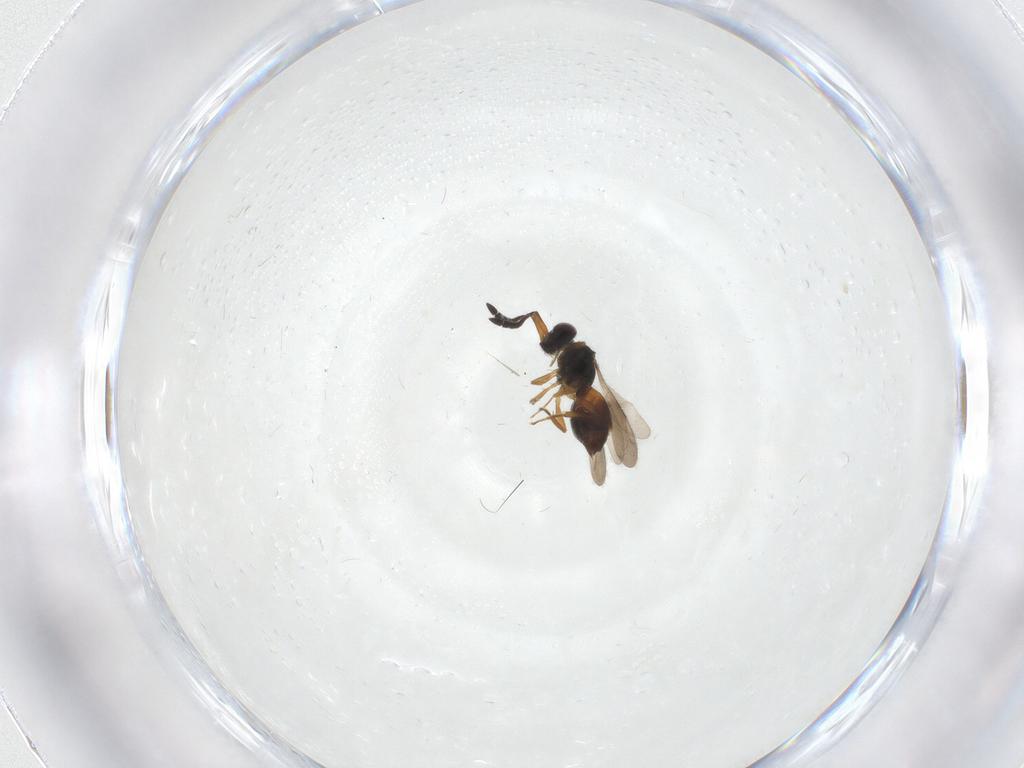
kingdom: Animalia
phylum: Arthropoda
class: Insecta
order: Hymenoptera
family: Ceraphronidae
